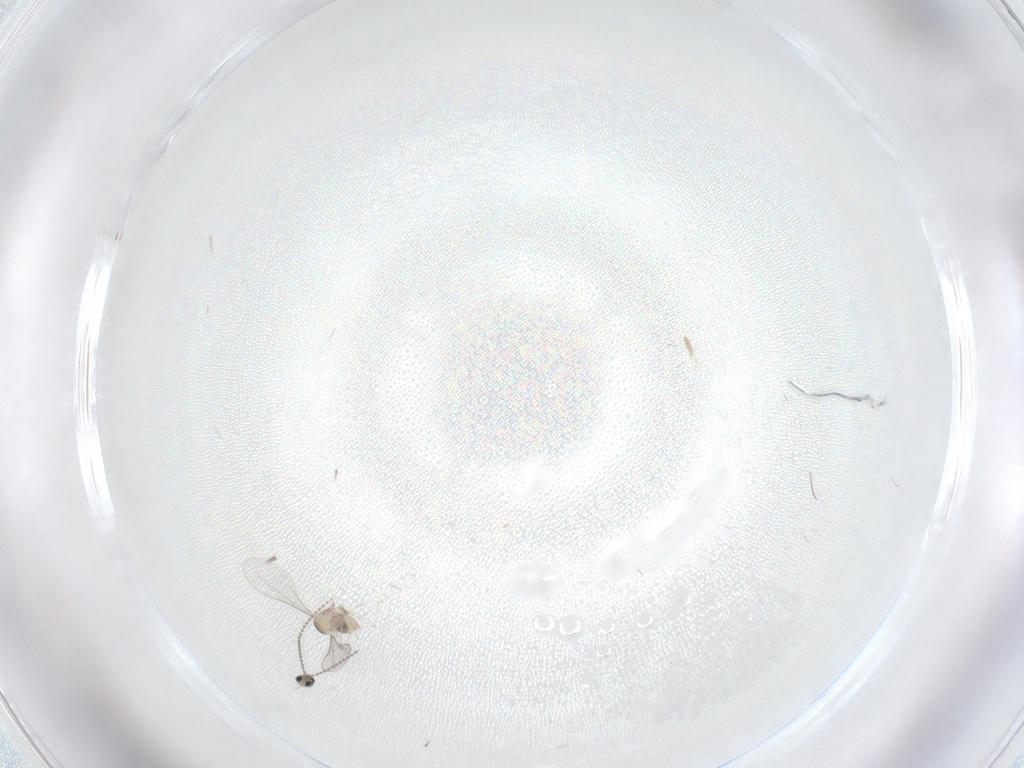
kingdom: Animalia
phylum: Arthropoda
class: Insecta
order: Diptera
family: Cecidomyiidae
